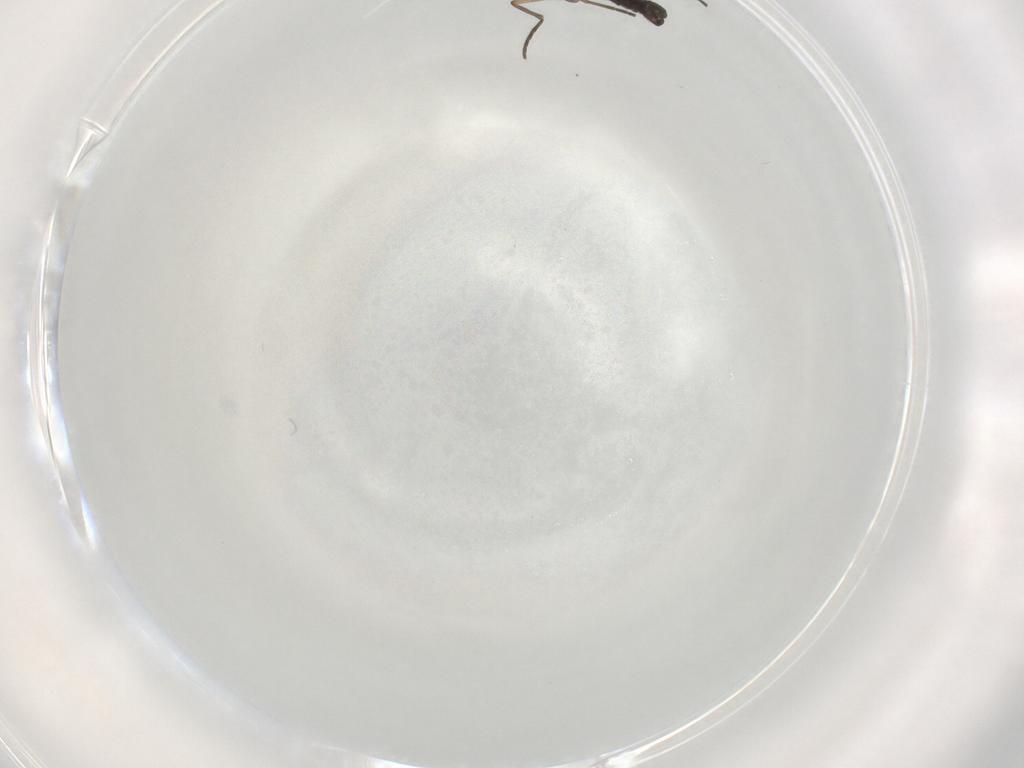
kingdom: Animalia
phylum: Arthropoda
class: Insecta
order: Diptera
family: Sciaridae
